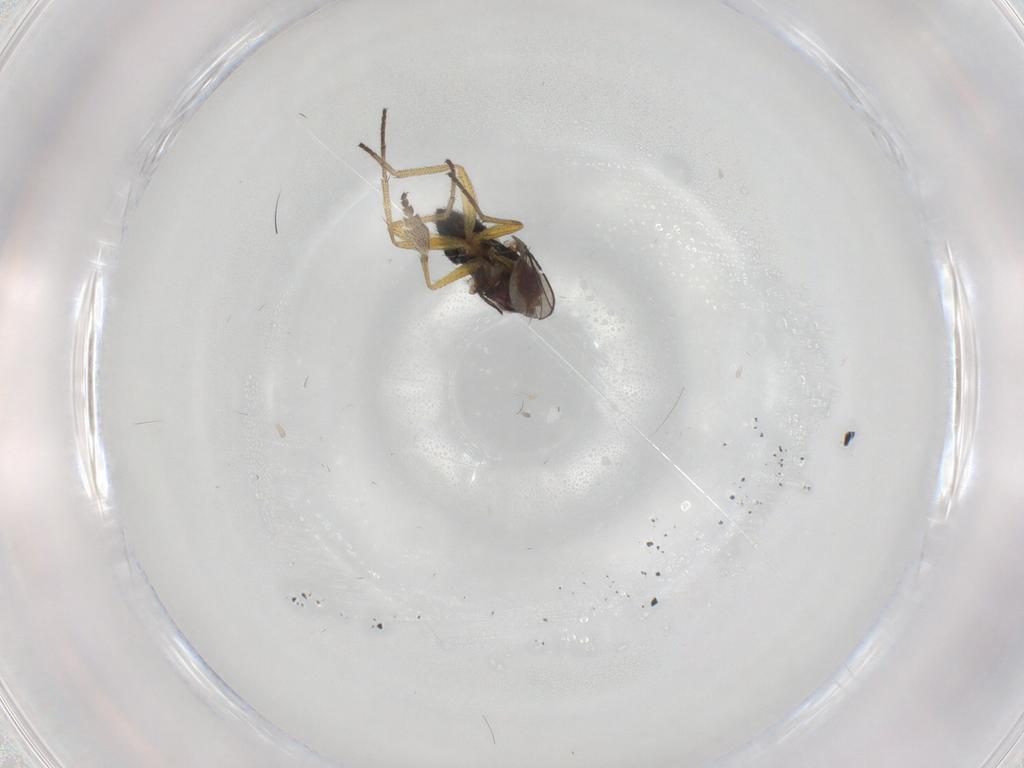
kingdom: Animalia
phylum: Arthropoda
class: Insecta
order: Diptera
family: Dolichopodidae
